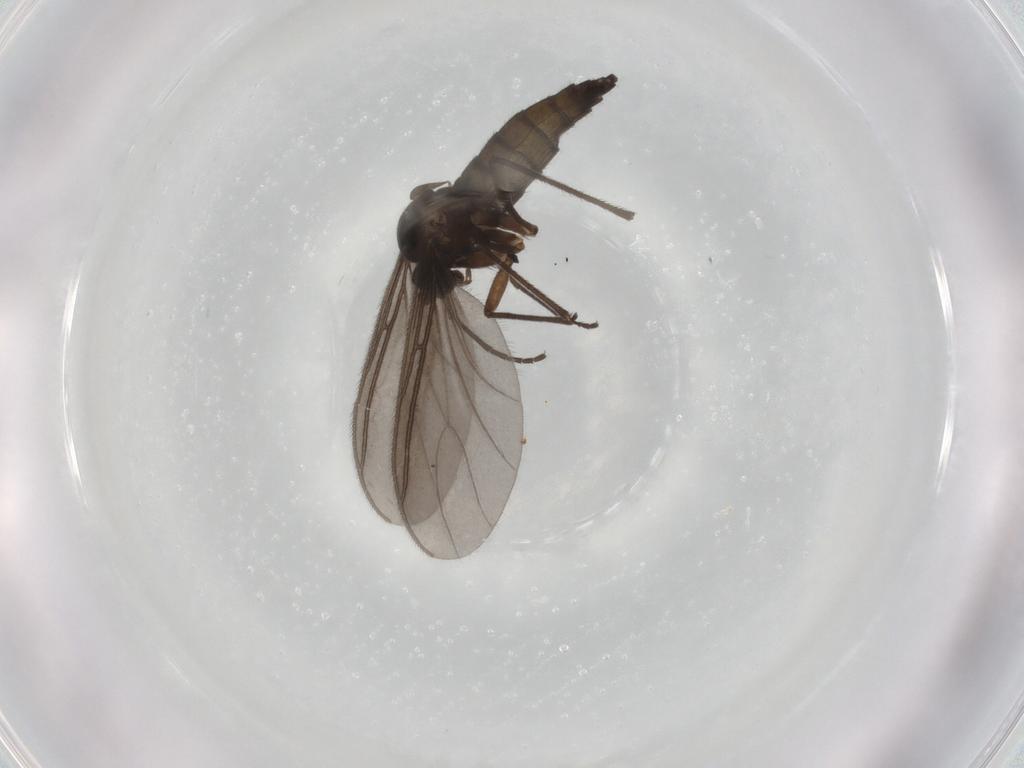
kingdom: Animalia
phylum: Arthropoda
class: Insecta
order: Diptera
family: Sciaridae
